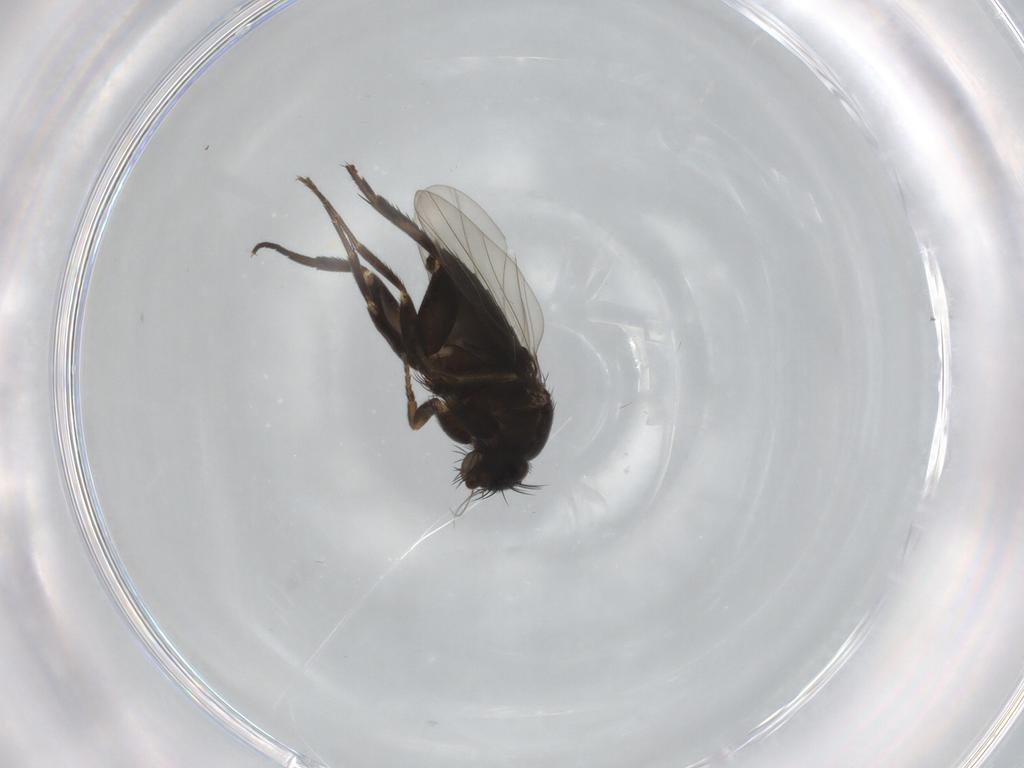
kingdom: Animalia
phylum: Arthropoda
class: Insecta
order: Diptera
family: Phoridae
